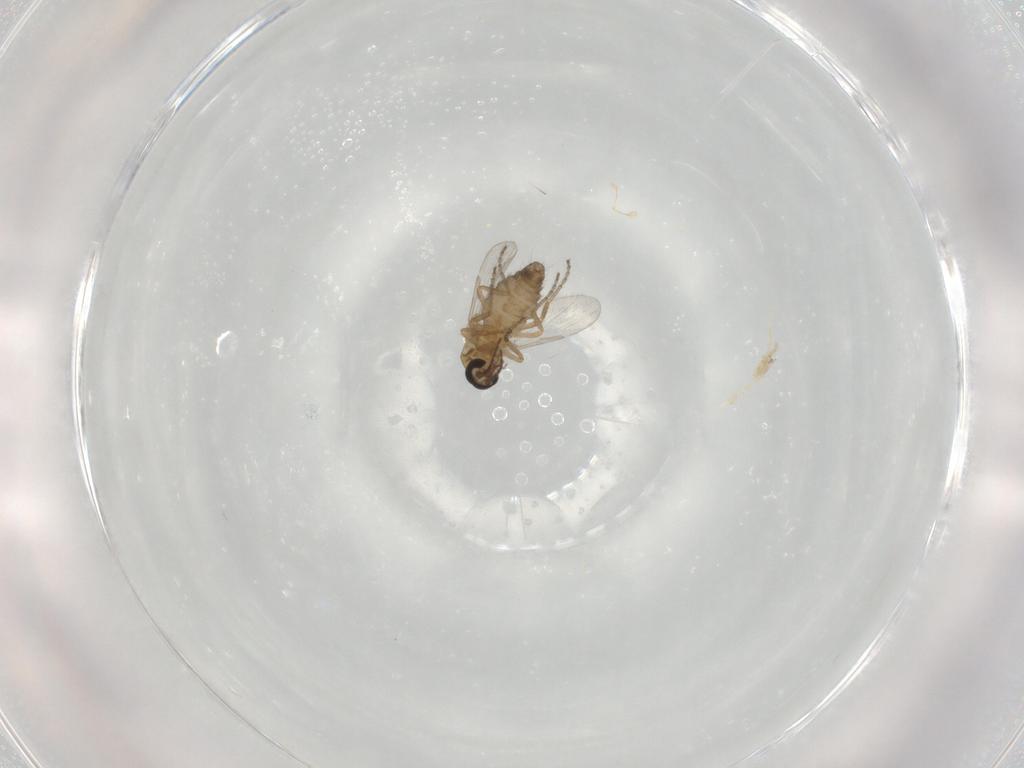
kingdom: Animalia
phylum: Arthropoda
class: Insecta
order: Diptera
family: Ceratopogonidae
